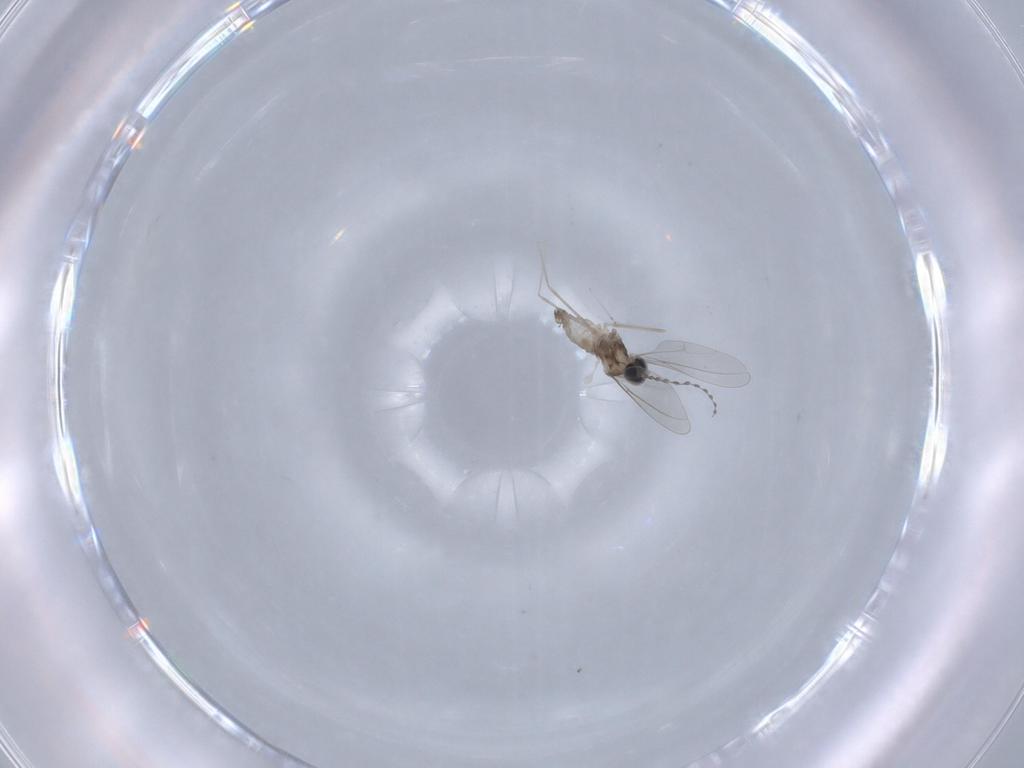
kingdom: Animalia
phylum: Arthropoda
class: Insecta
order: Diptera
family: Cecidomyiidae
